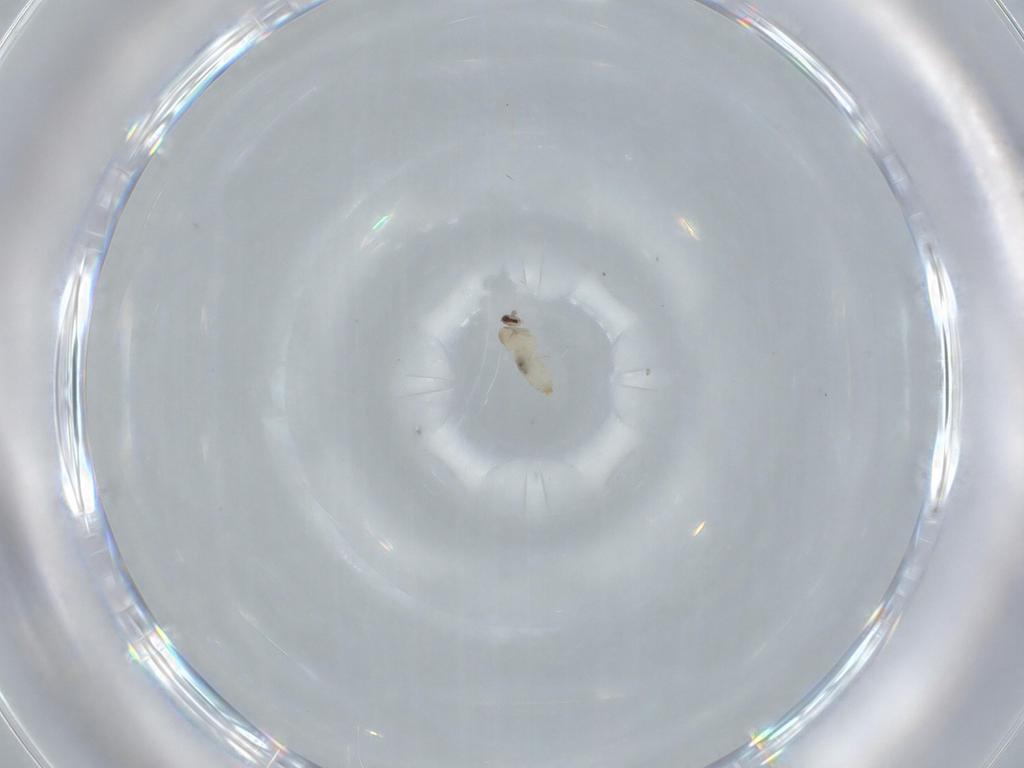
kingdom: Animalia
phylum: Arthropoda
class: Insecta
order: Diptera
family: Cecidomyiidae
